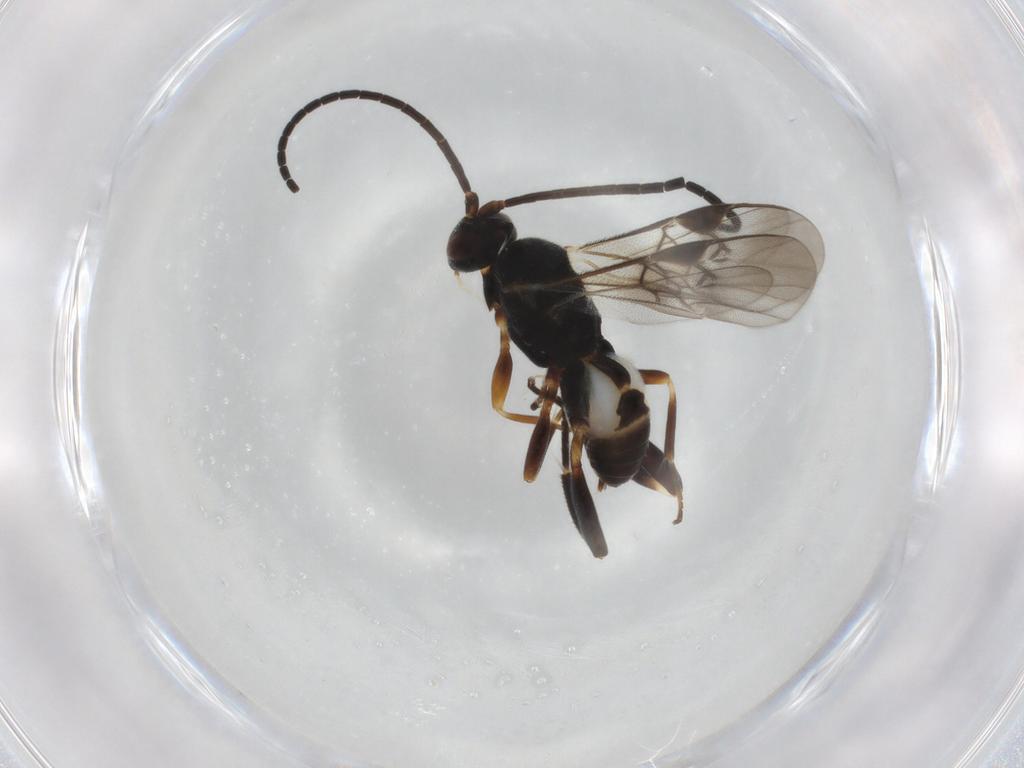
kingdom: Animalia
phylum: Arthropoda
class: Insecta
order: Hymenoptera
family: Braconidae
